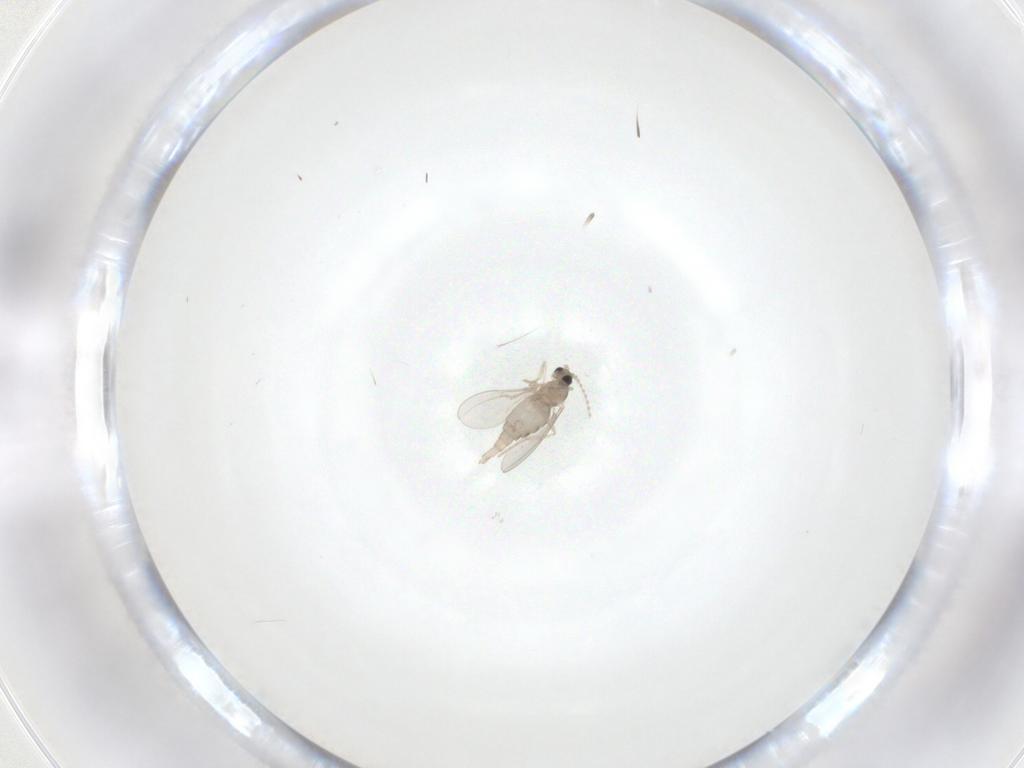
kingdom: Animalia
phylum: Arthropoda
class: Insecta
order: Diptera
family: Cecidomyiidae
